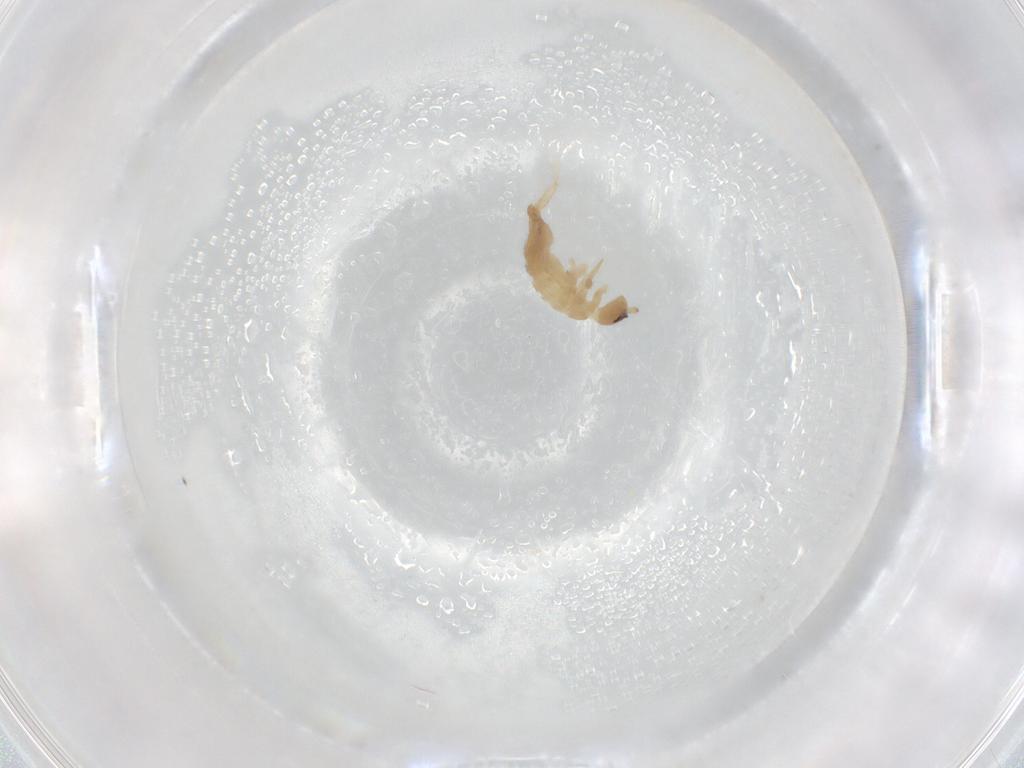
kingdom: Animalia
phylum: Arthropoda
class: Collembola
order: Entomobryomorpha
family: Entomobryidae
